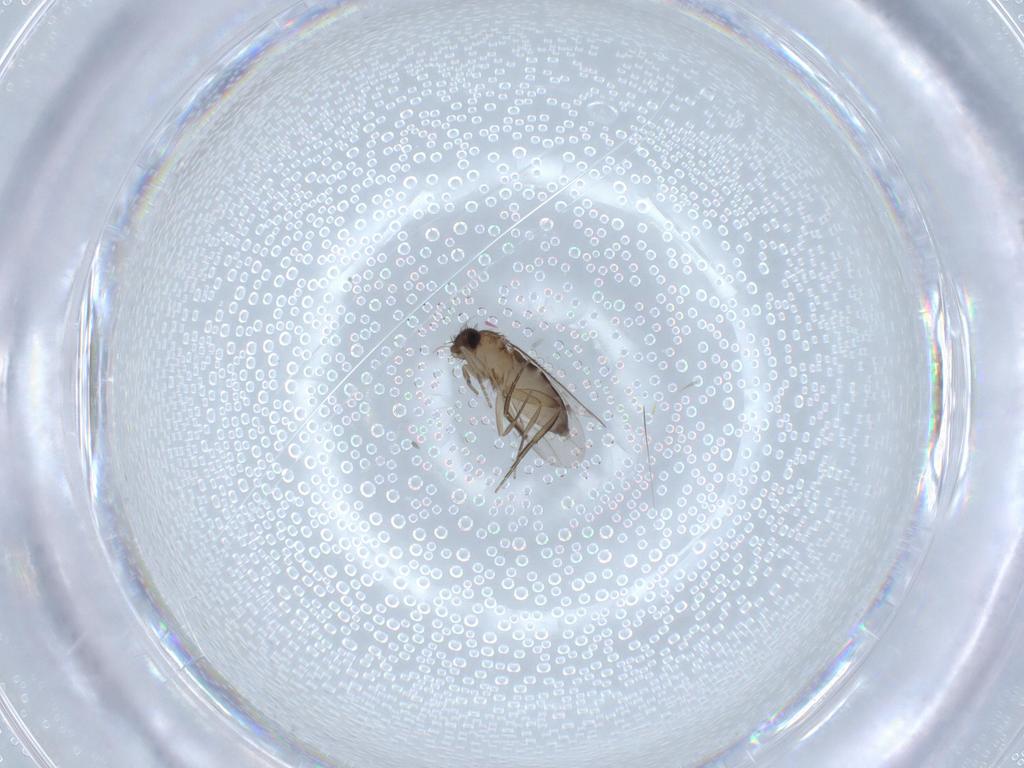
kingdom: Animalia
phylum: Arthropoda
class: Insecta
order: Diptera
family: Phoridae
